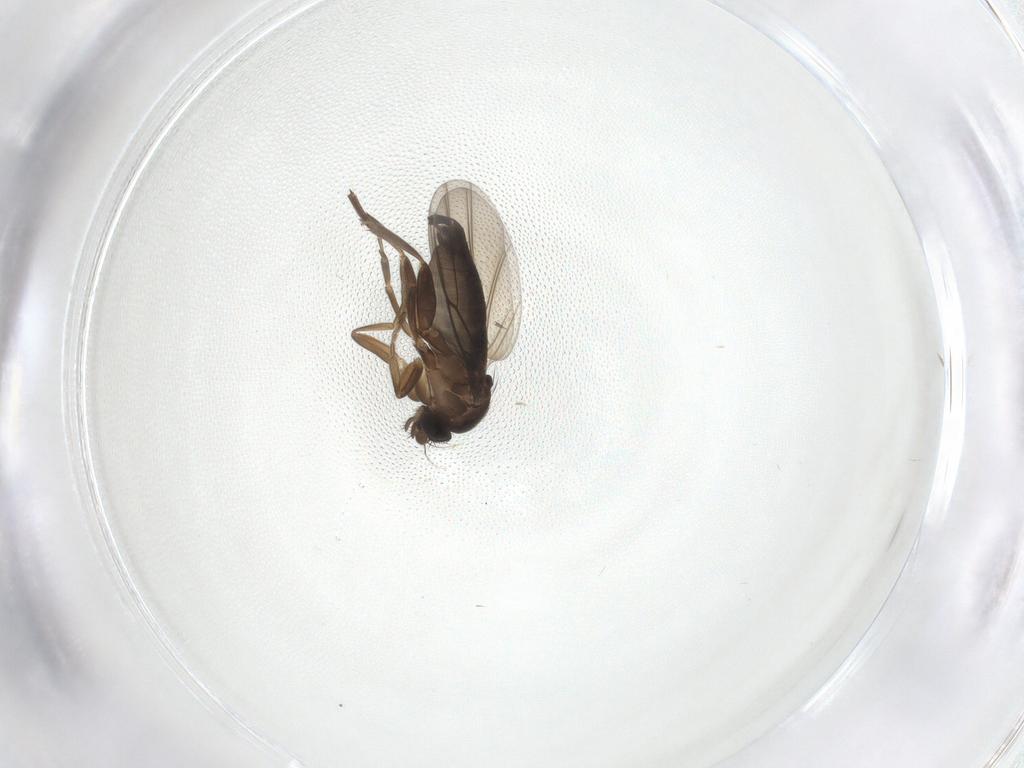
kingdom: Animalia
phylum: Arthropoda
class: Insecta
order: Diptera
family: Phoridae
